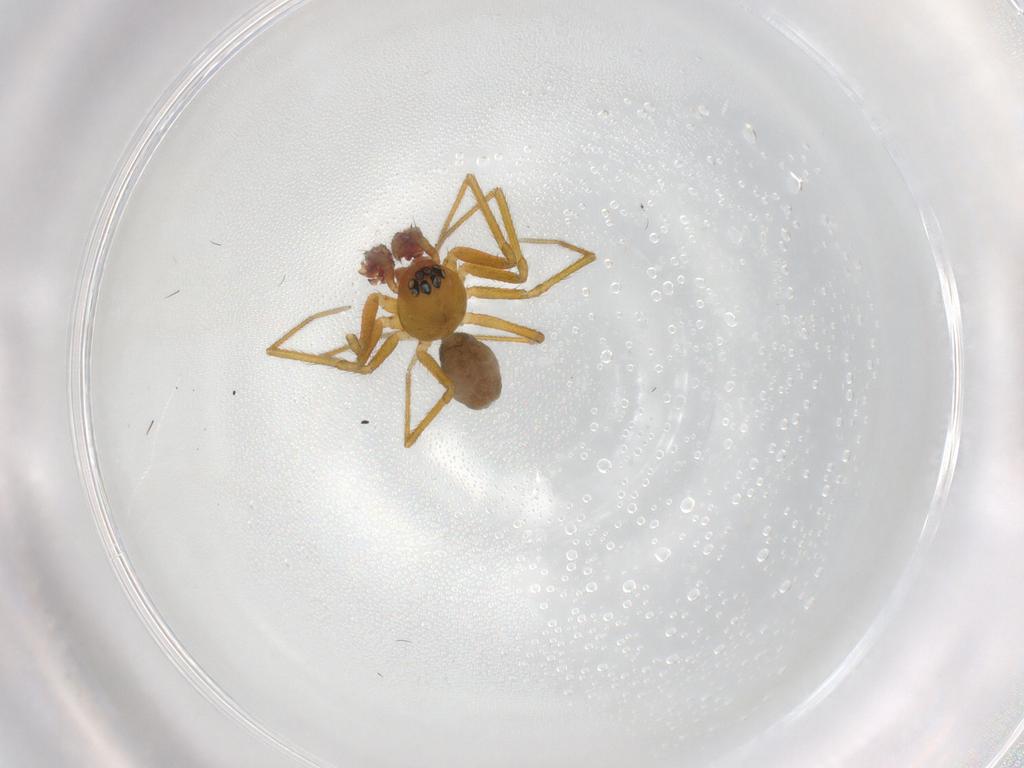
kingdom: Animalia
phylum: Arthropoda
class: Arachnida
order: Araneae
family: Linyphiidae
